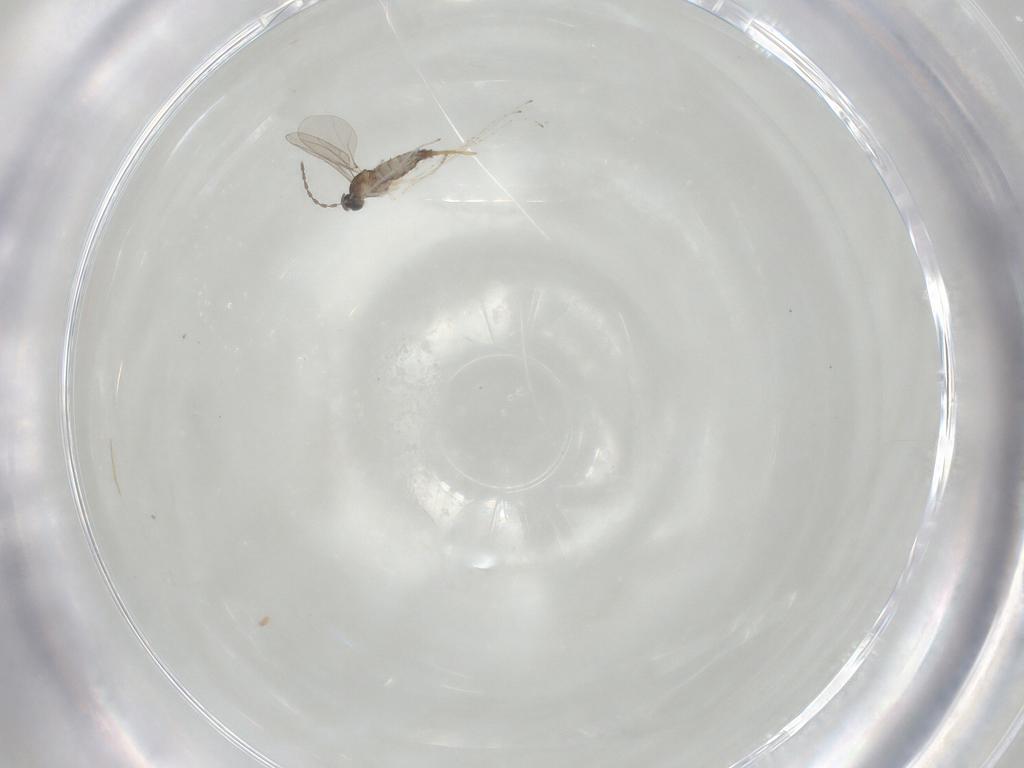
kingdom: Animalia
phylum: Arthropoda
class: Insecta
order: Diptera
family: Cecidomyiidae
